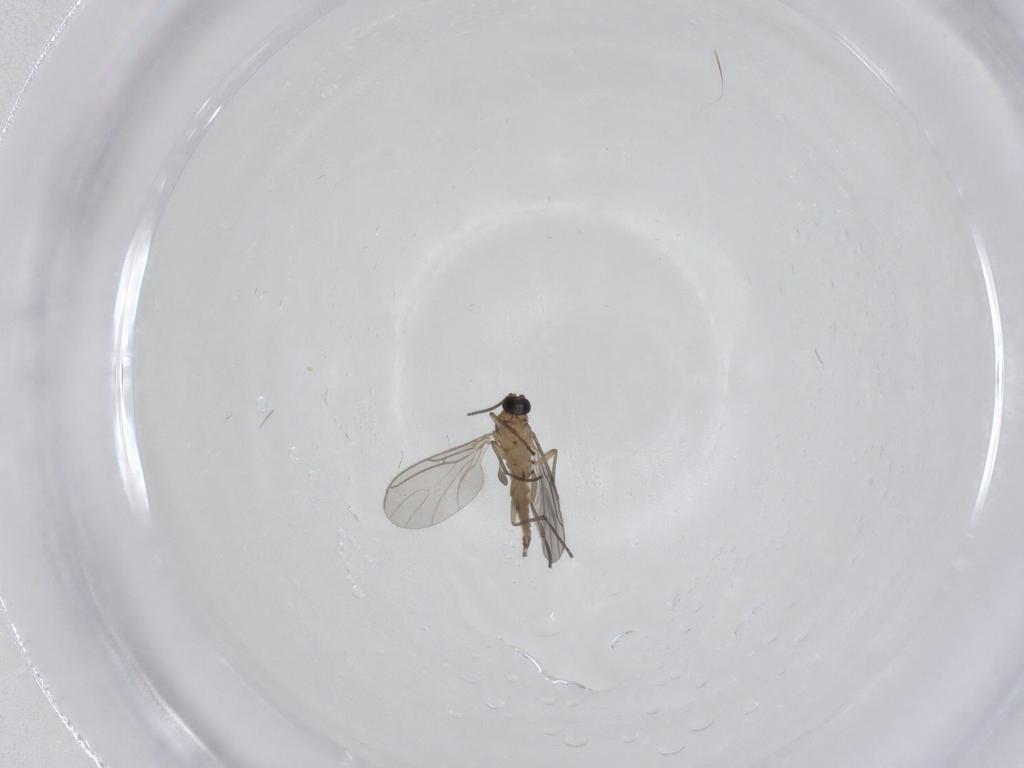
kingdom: Animalia
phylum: Arthropoda
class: Insecta
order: Diptera
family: Sciaridae
